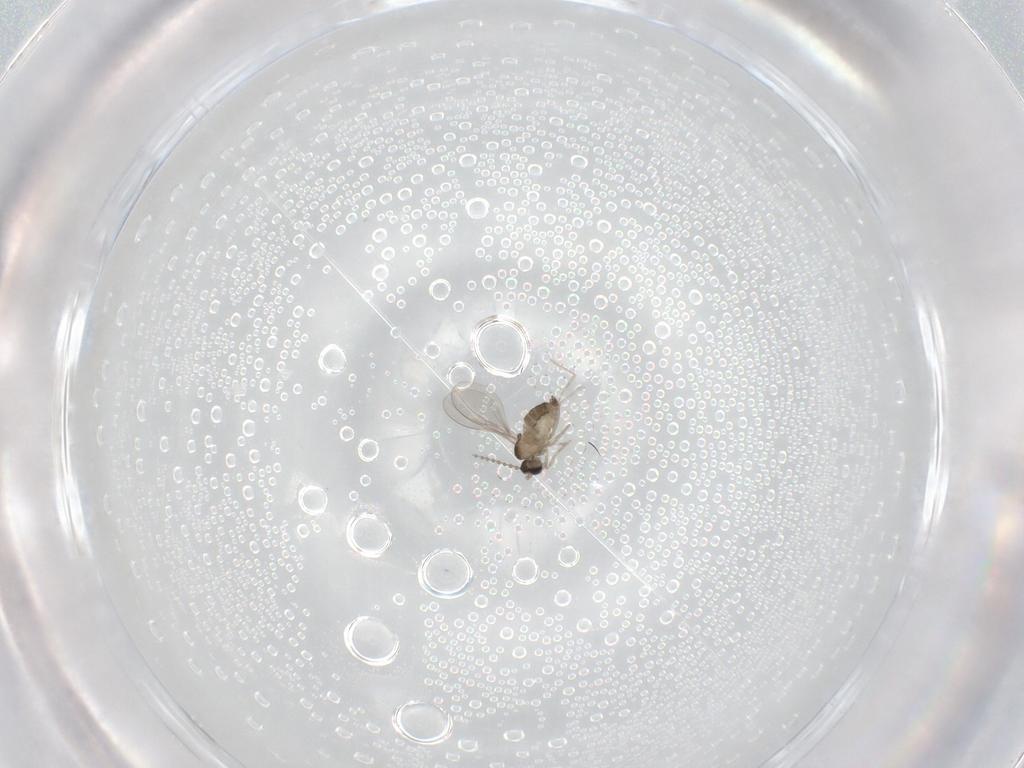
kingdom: Animalia
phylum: Arthropoda
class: Insecta
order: Diptera
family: Cecidomyiidae
